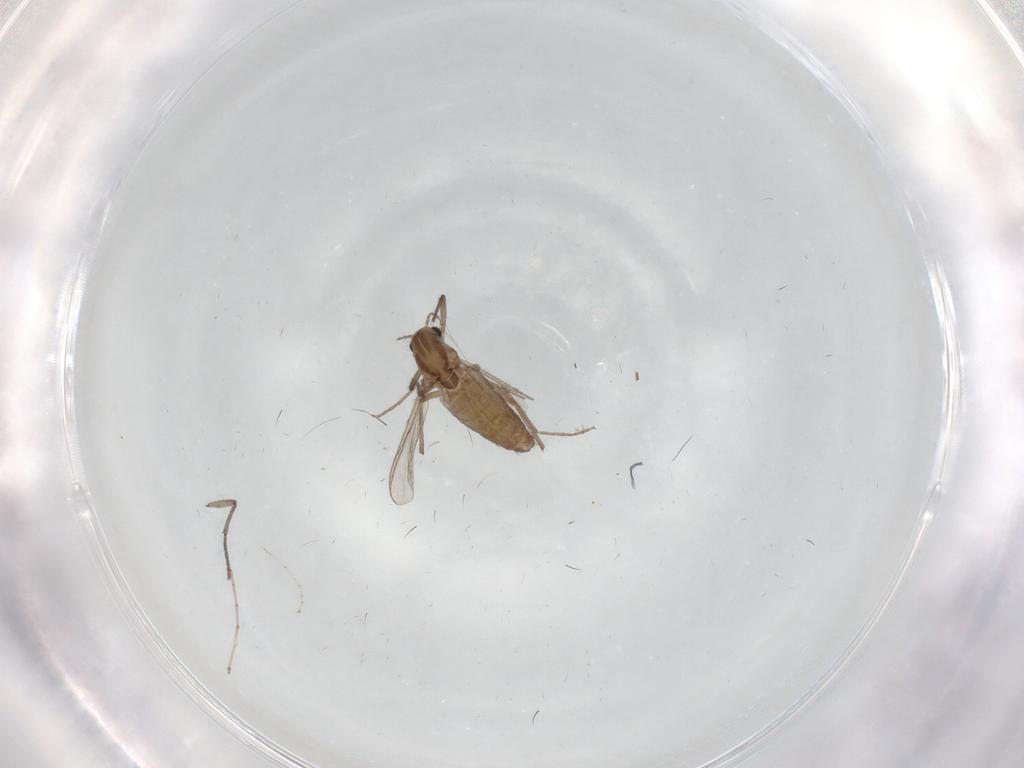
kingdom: Animalia
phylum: Arthropoda
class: Insecta
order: Diptera
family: Chironomidae
